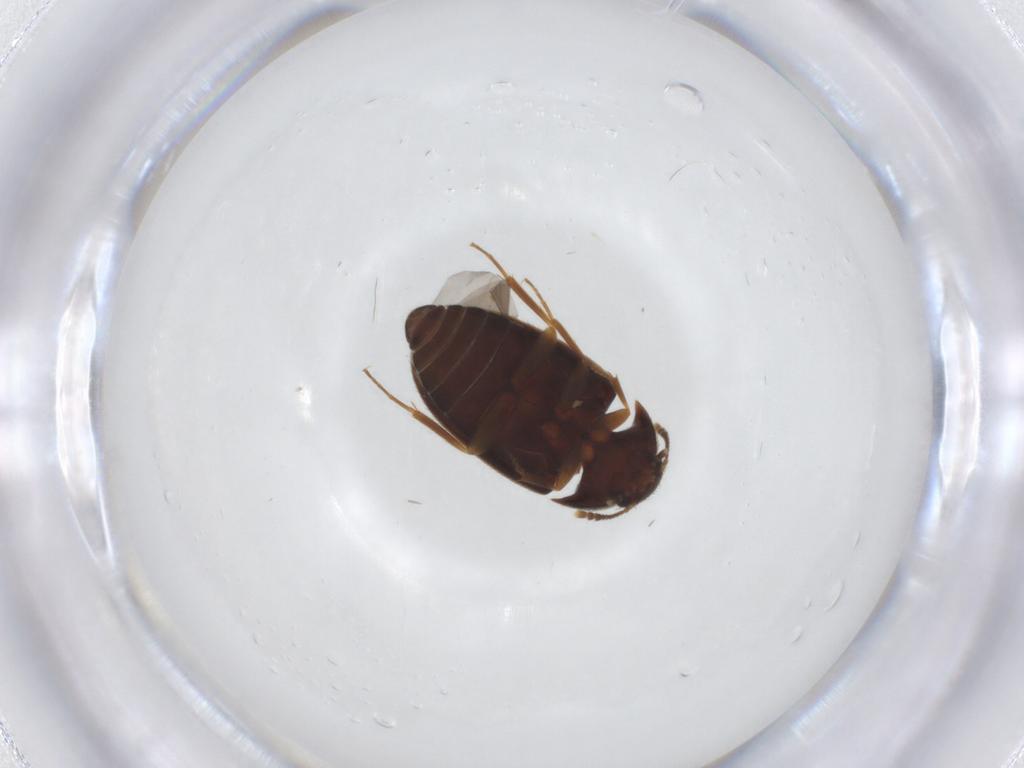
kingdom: Animalia
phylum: Arthropoda
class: Insecta
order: Coleoptera
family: Mycetophagidae
